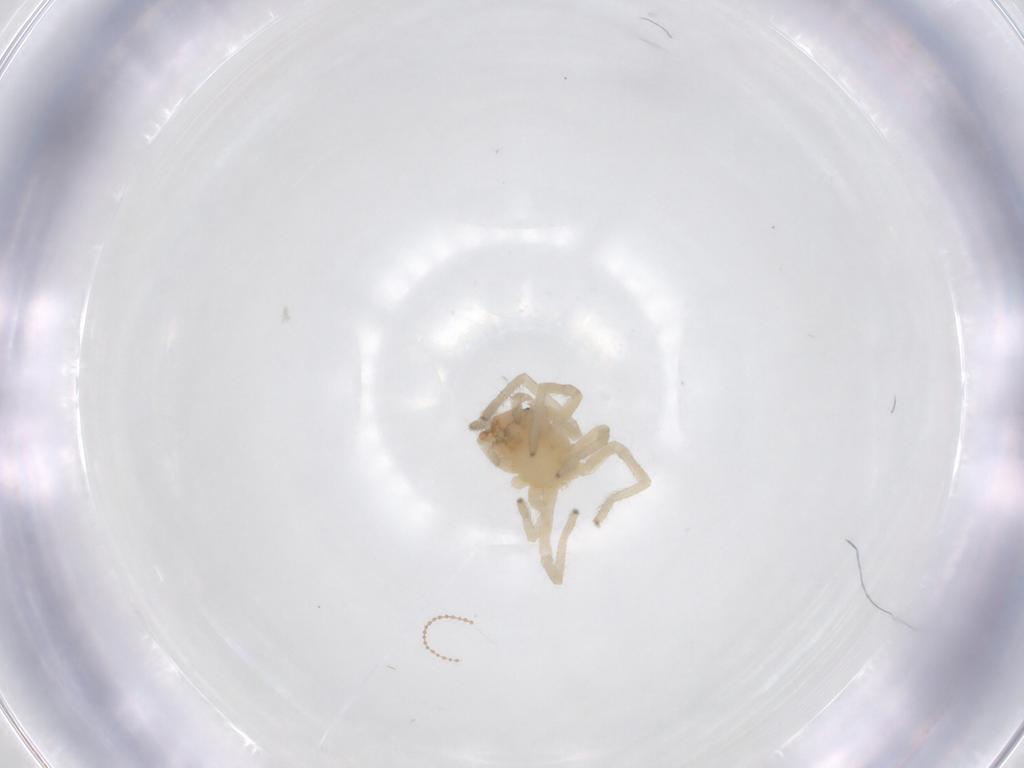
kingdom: Animalia
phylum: Arthropoda
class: Arachnida
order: Araneae
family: Cheiracanthiidae
